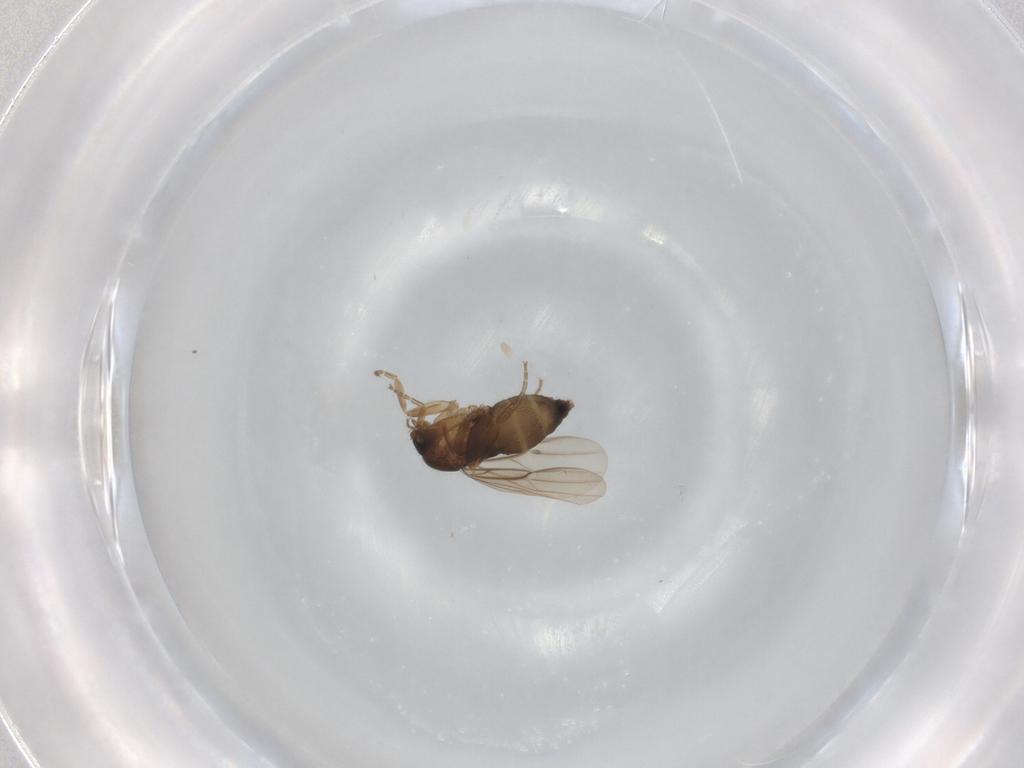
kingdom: Animalia
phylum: Arthropoda
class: Insecta
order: Diptera
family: Phoridae
